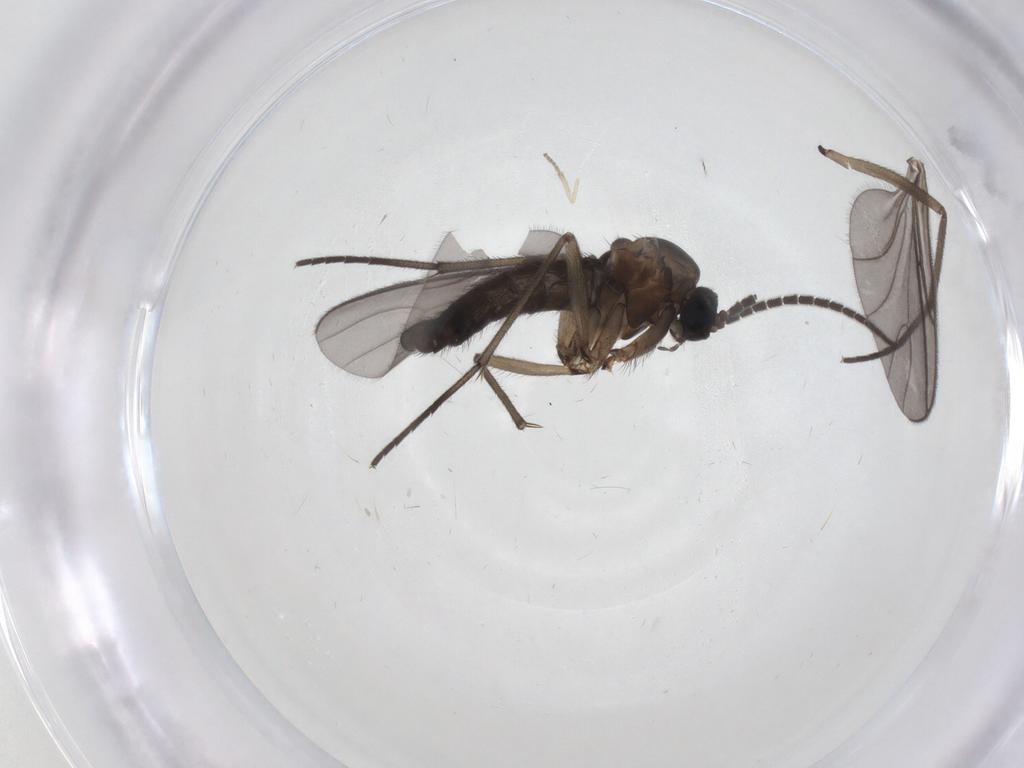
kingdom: Animalia
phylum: Arthropoda
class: Insecta
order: Diptera
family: Sciaridae
